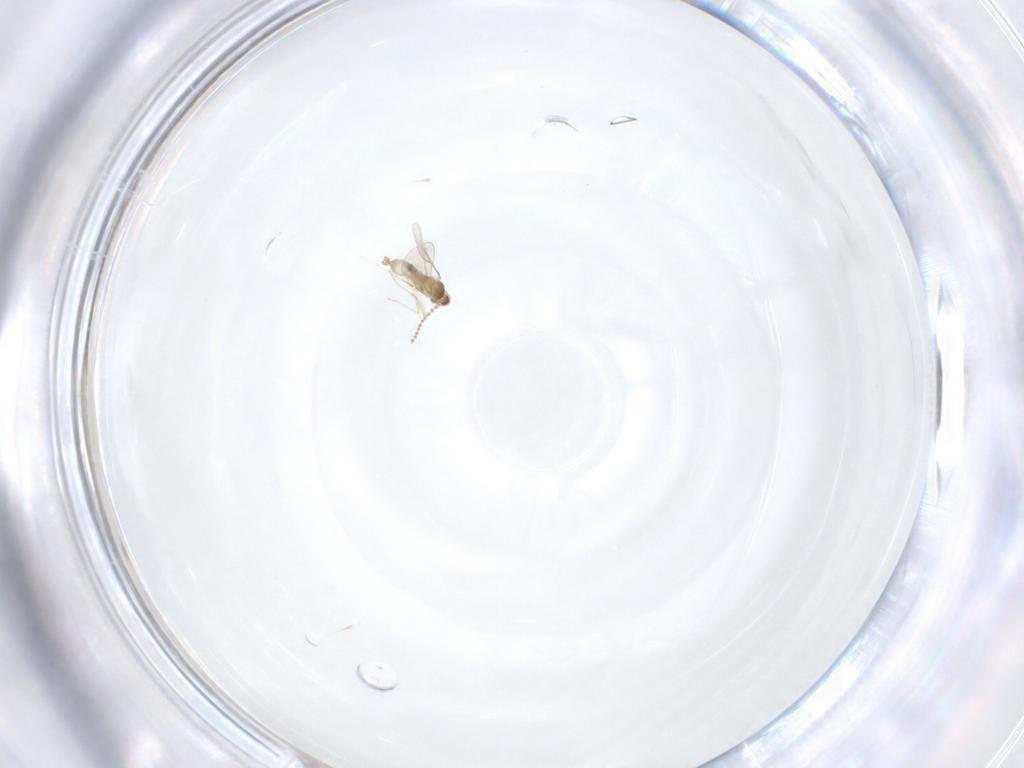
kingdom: Animalia
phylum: Arthropoda
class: Insecta
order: Diptera
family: Cecidomyiidae
